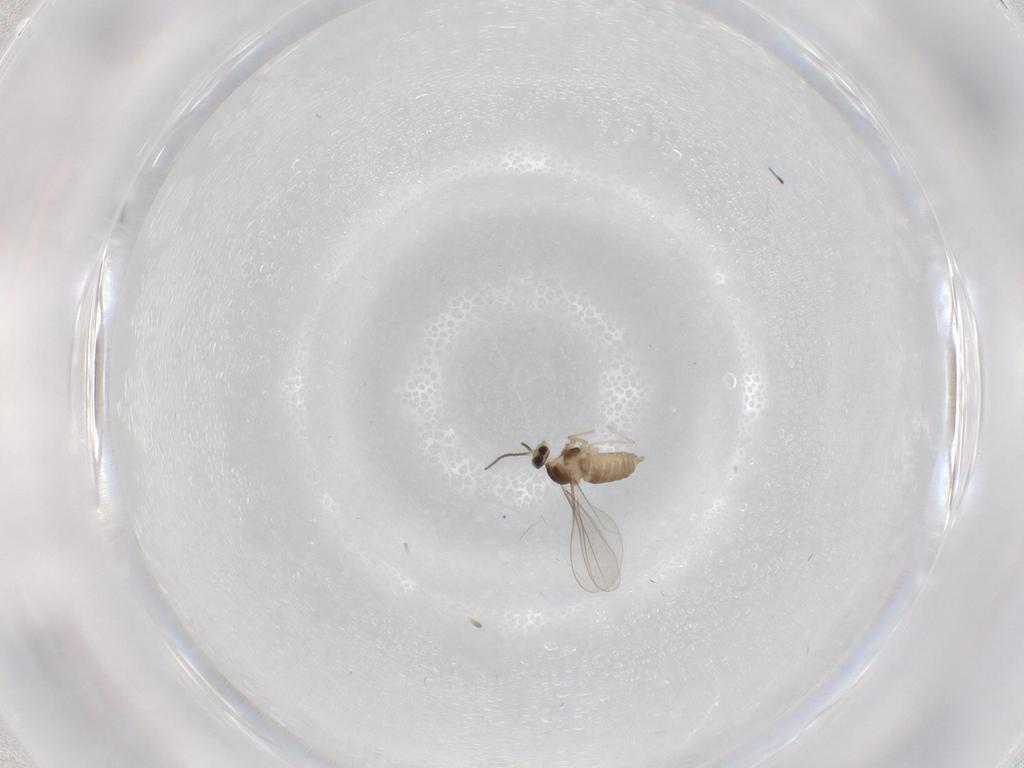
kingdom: Animalia
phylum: Arthropoda
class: Insecta
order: Diptera
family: Cecidomyiidae
